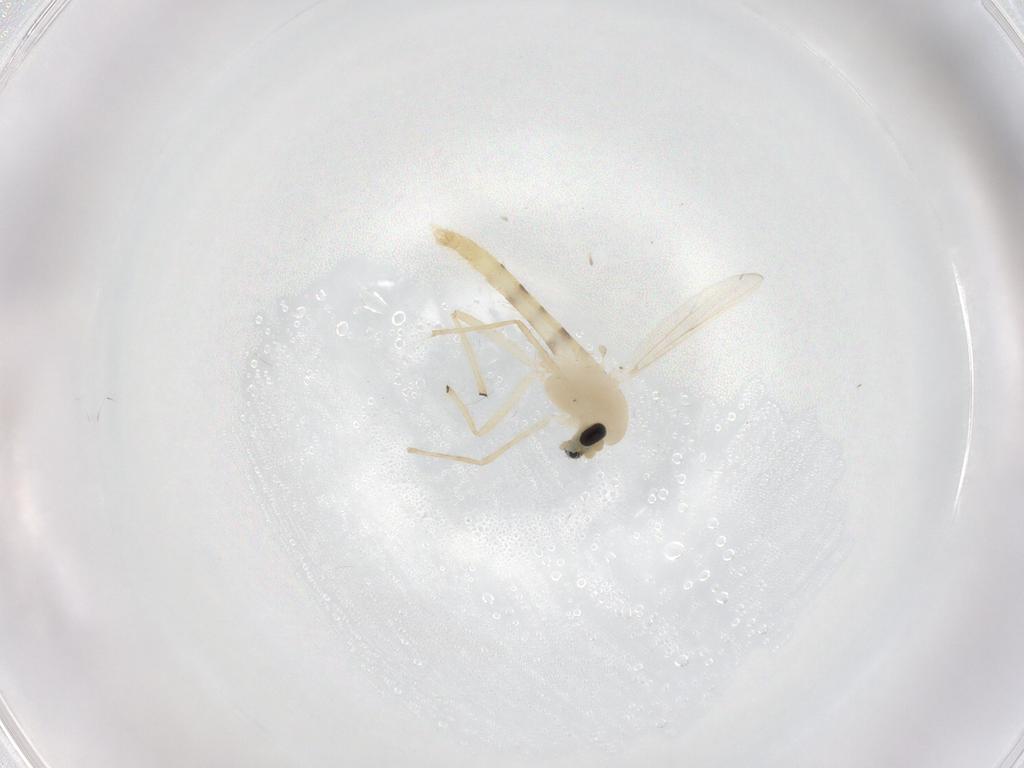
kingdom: Animalia
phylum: Arthropoda
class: Insecta
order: Diptera
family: Chironomidae
